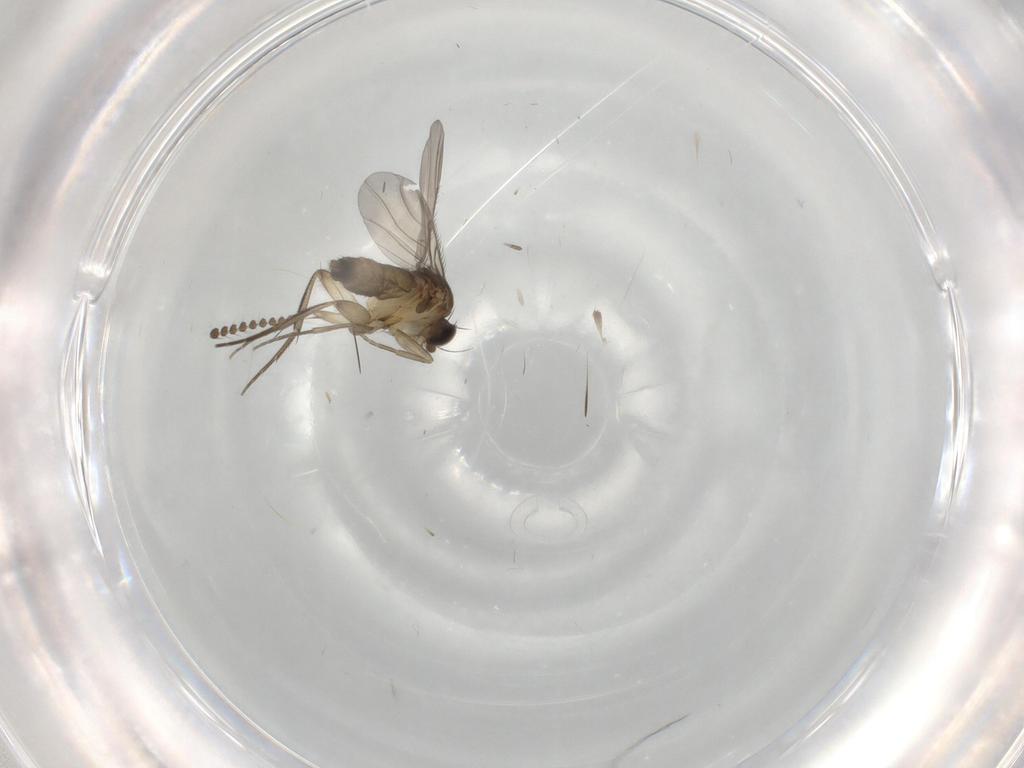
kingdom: Animalia
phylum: Arthropoda
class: Insecta
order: Diptera
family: Phoridae
